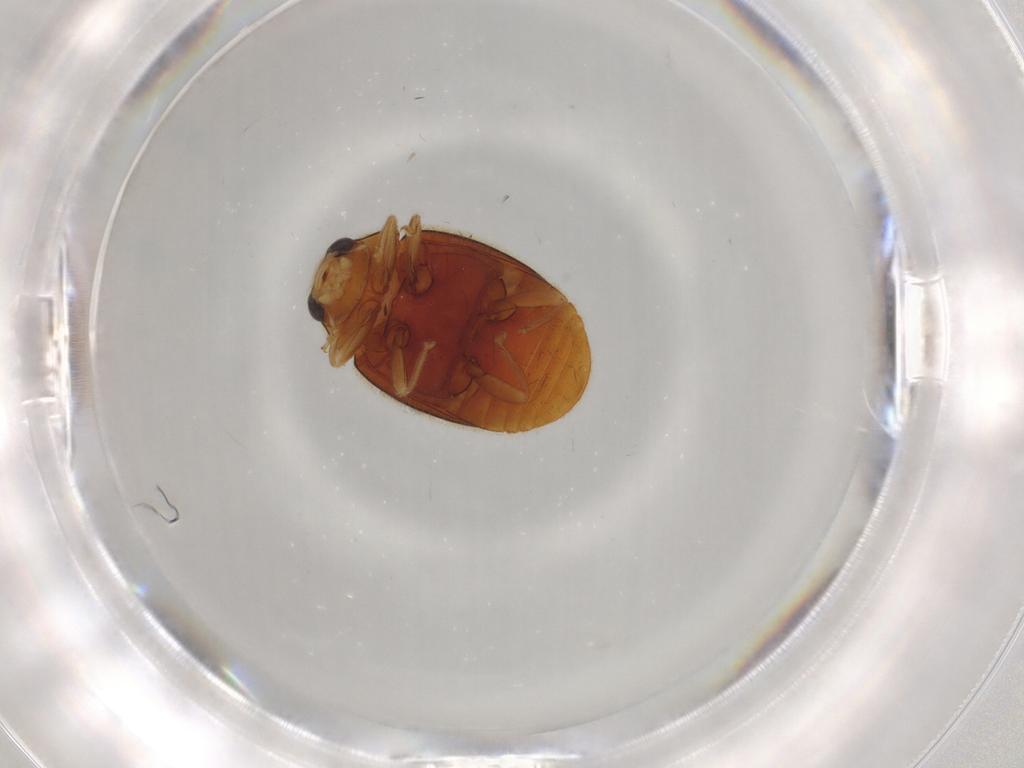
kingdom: Animalia
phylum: Arthropoda
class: Insecta
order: Coleoptera
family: Coccinellidae
